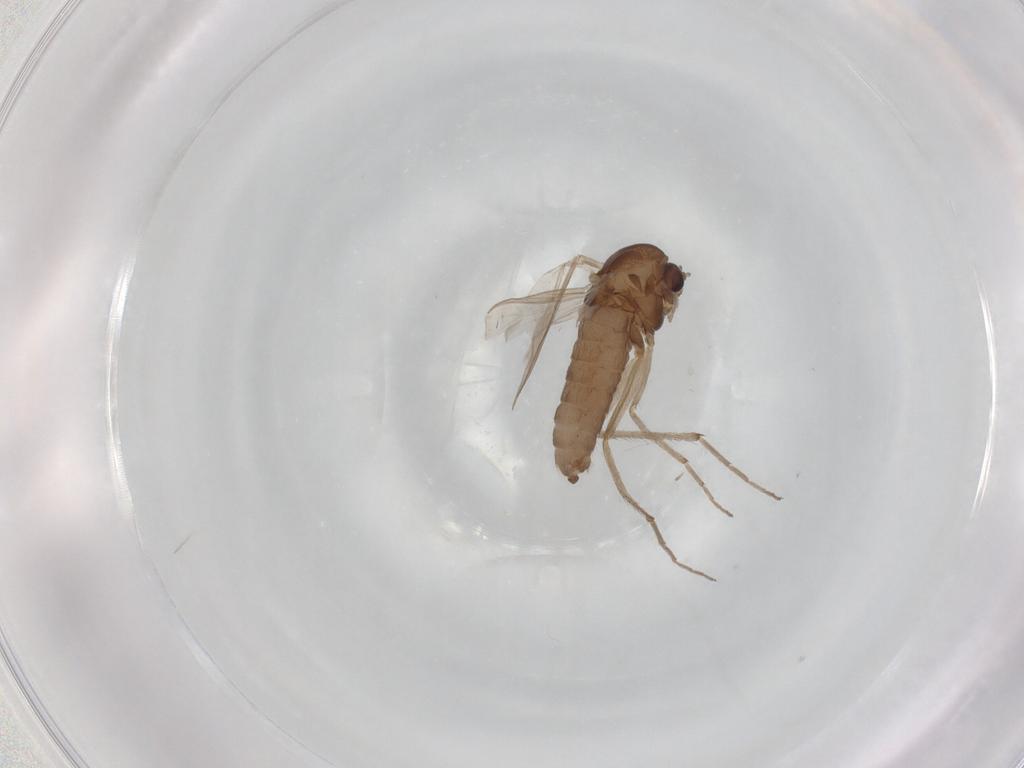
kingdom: Animalia
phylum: Arthropoda
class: Insecta
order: Diptera
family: Chironomidae
